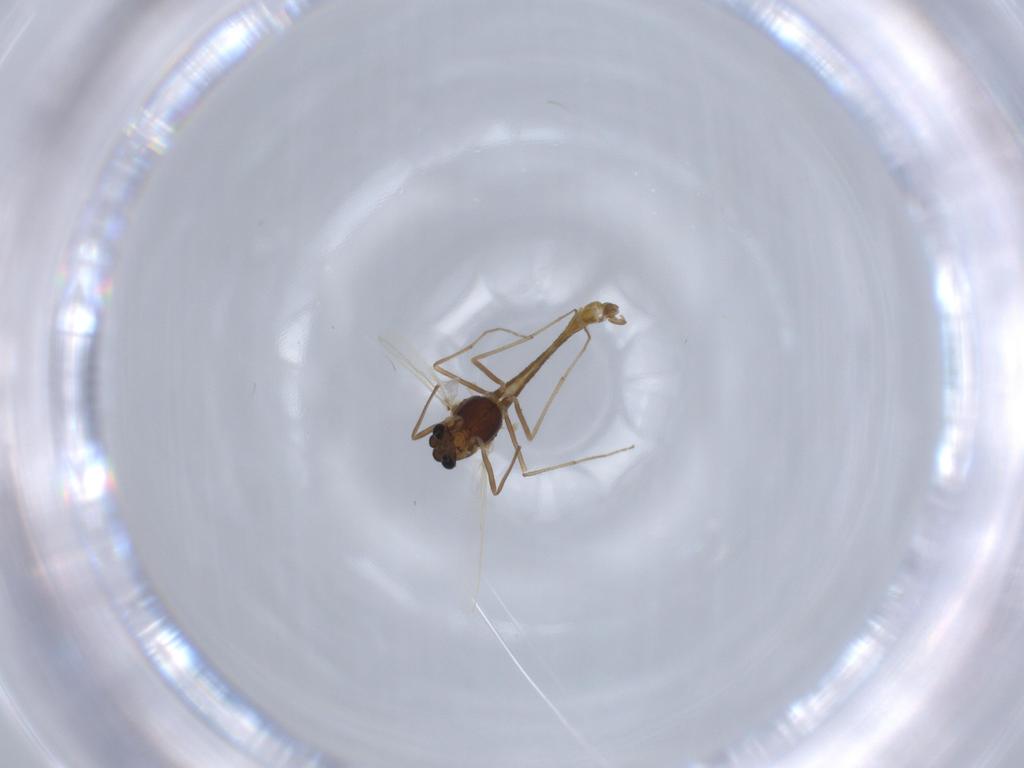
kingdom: Animalia
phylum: Arthropoda
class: Insecta
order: Diptera
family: Chironomidae
